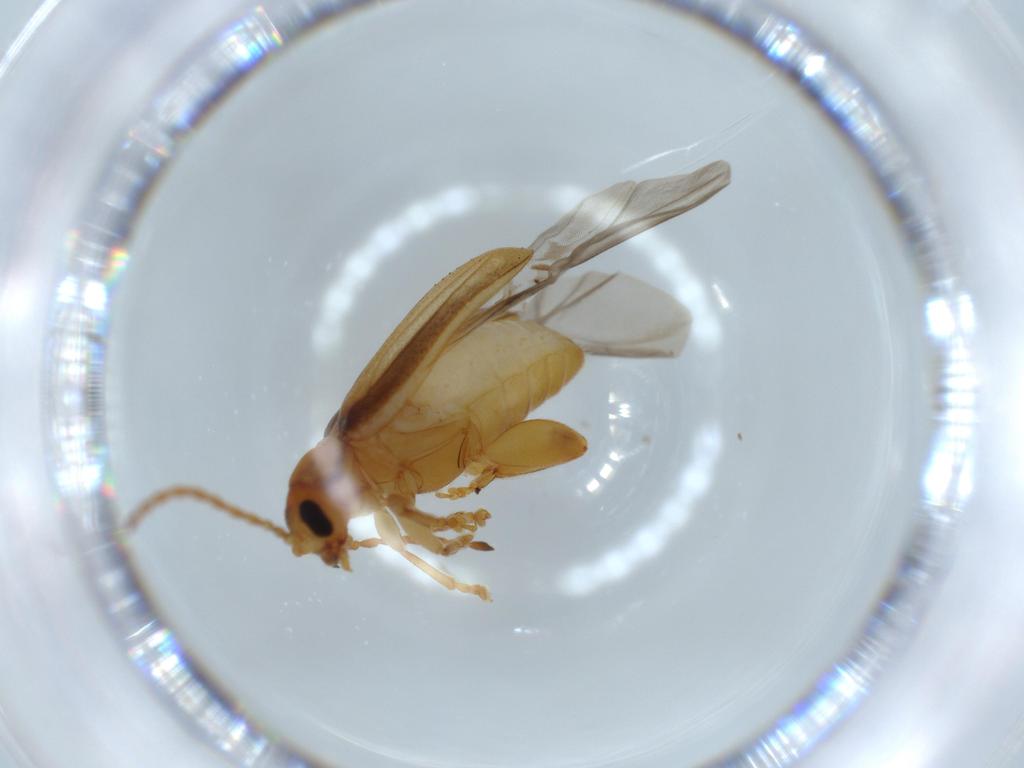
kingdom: Animalia
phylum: Arthropoda
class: Insecta
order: Coleoptera
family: Chrysomelidae
